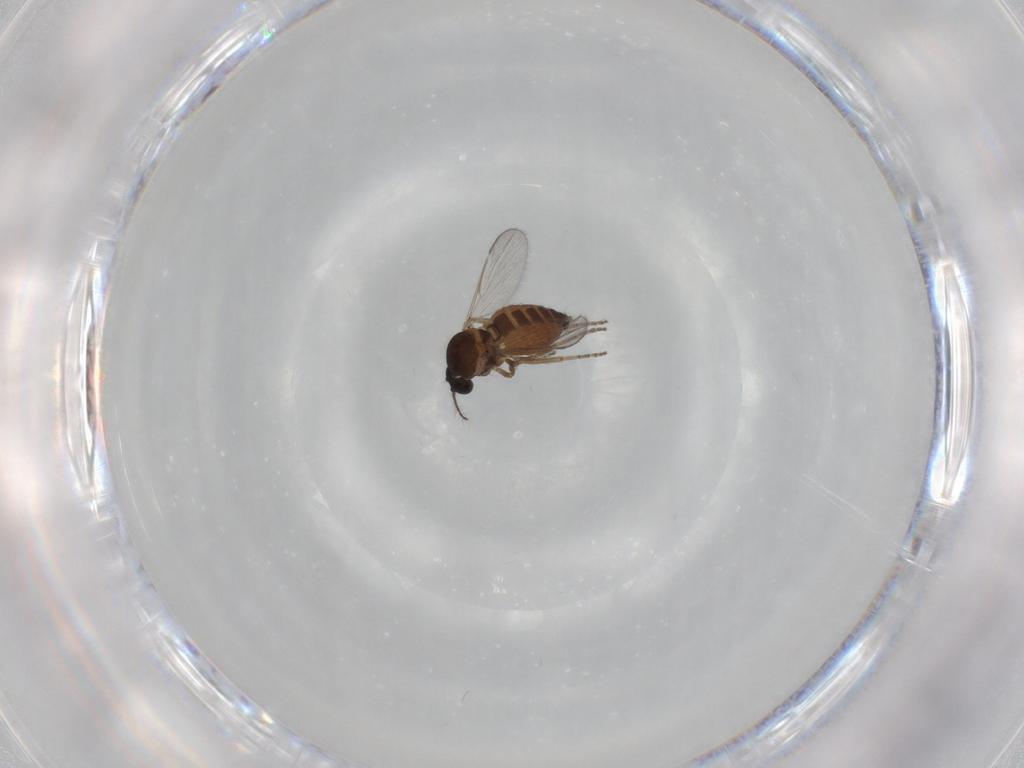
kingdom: Animalia
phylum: Arthropoda
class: Insecta
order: Diptera
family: Ceratopogonidae
